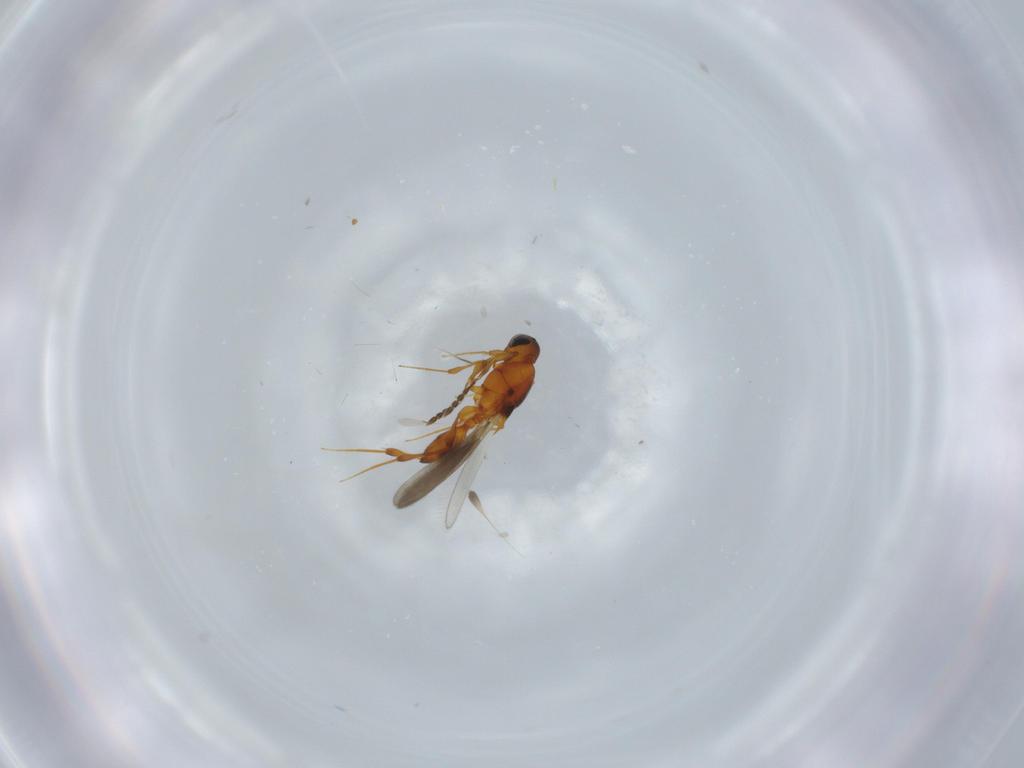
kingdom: Animalia
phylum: Arthropoda
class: Insecta
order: Hymenoptera
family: Platygastridae
